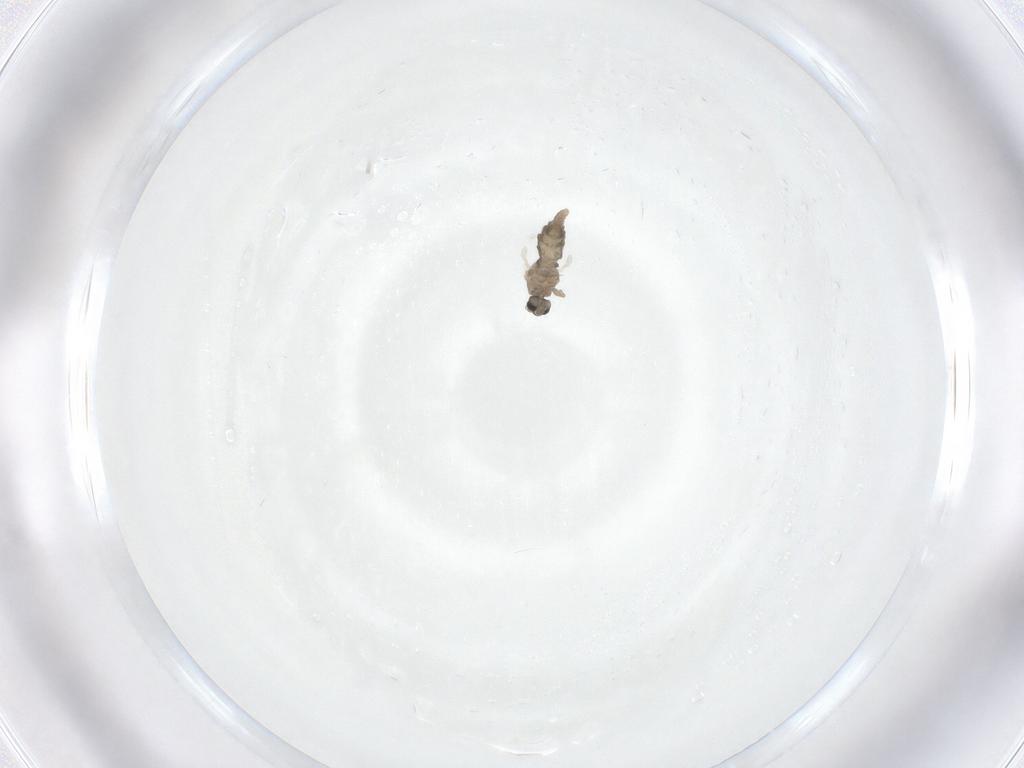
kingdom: Animalia
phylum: Arthropoda
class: Insecta
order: Diptera
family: Cecidomyiidae
